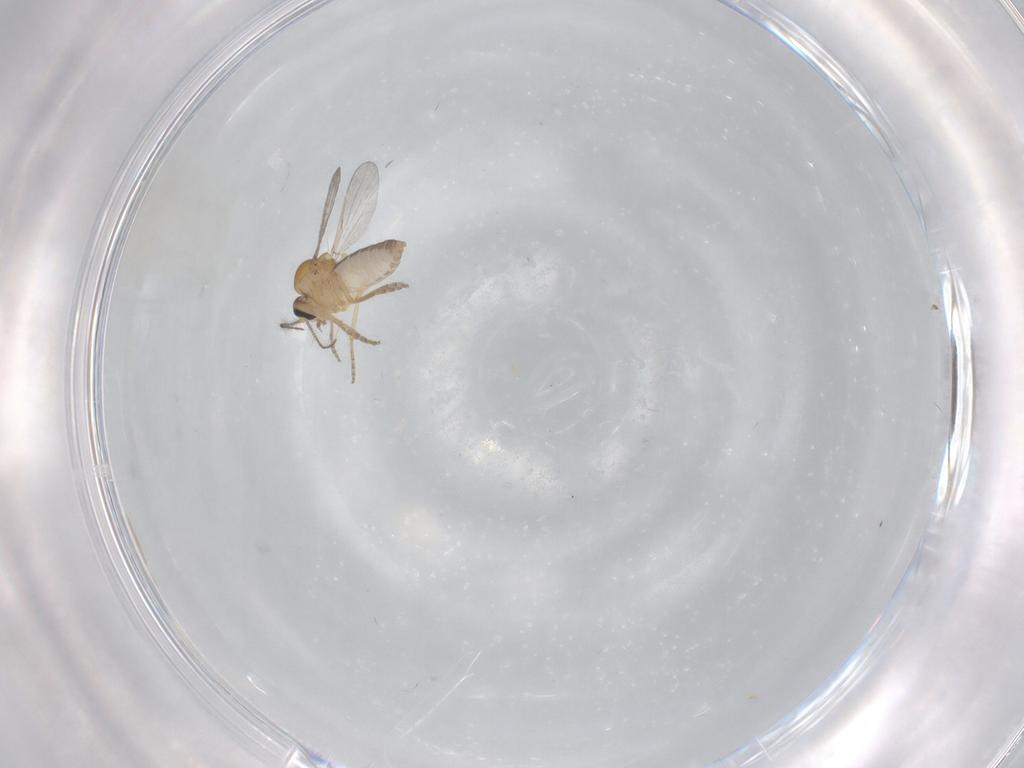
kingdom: Animalia
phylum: Arthropoda
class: Insecta
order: Diptera
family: Ceratopogonidae
